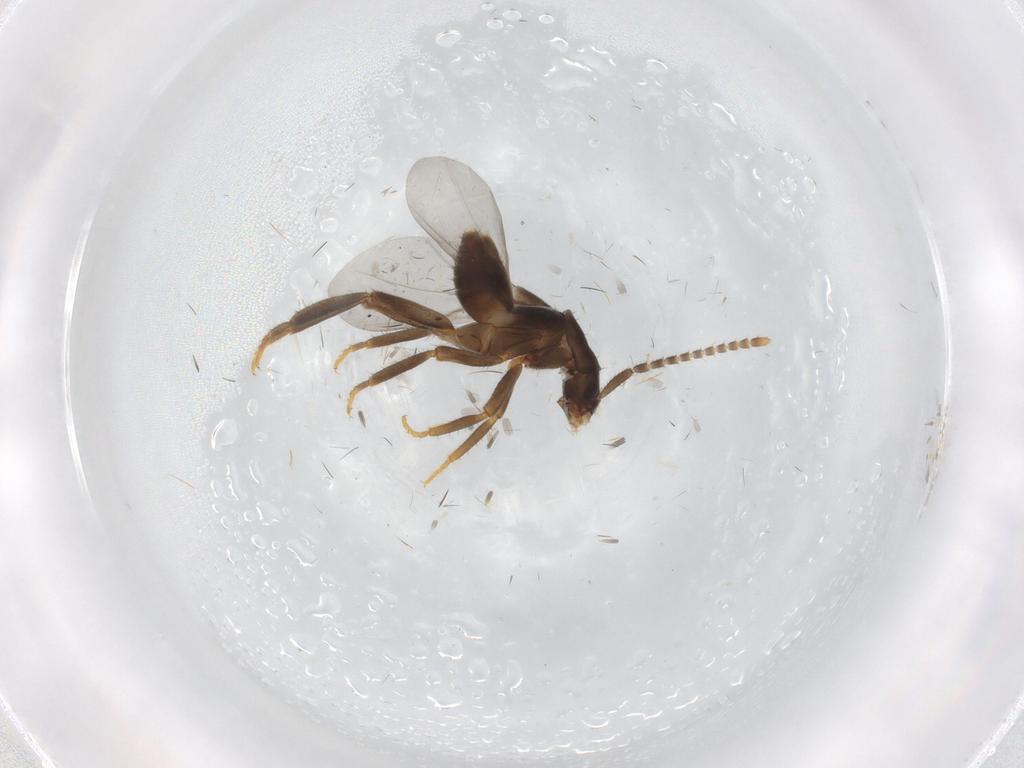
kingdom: Animalia
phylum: Arthropoda
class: Insecta
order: Coleoptera
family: Staphylinidae
